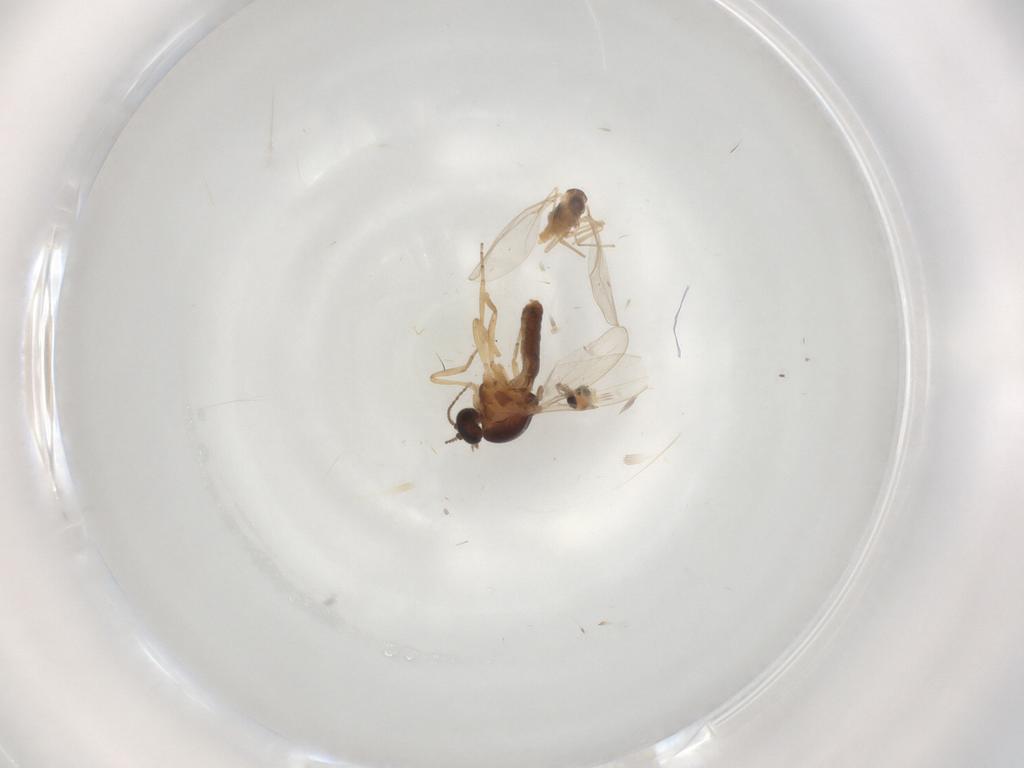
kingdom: Animalia
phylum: Arthropoda
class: Insecta
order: Diptera
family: Ceratopogonidae
